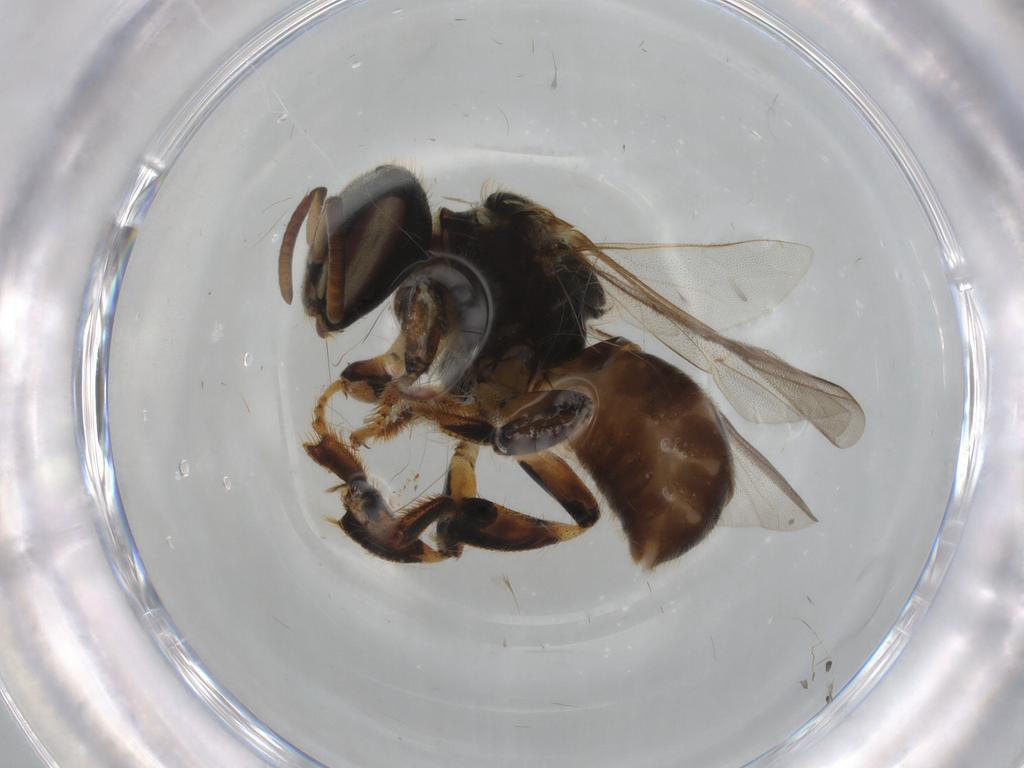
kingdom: Animalia
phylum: Arthropoda
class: Insecta
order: Hymenoptera
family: Apidae
